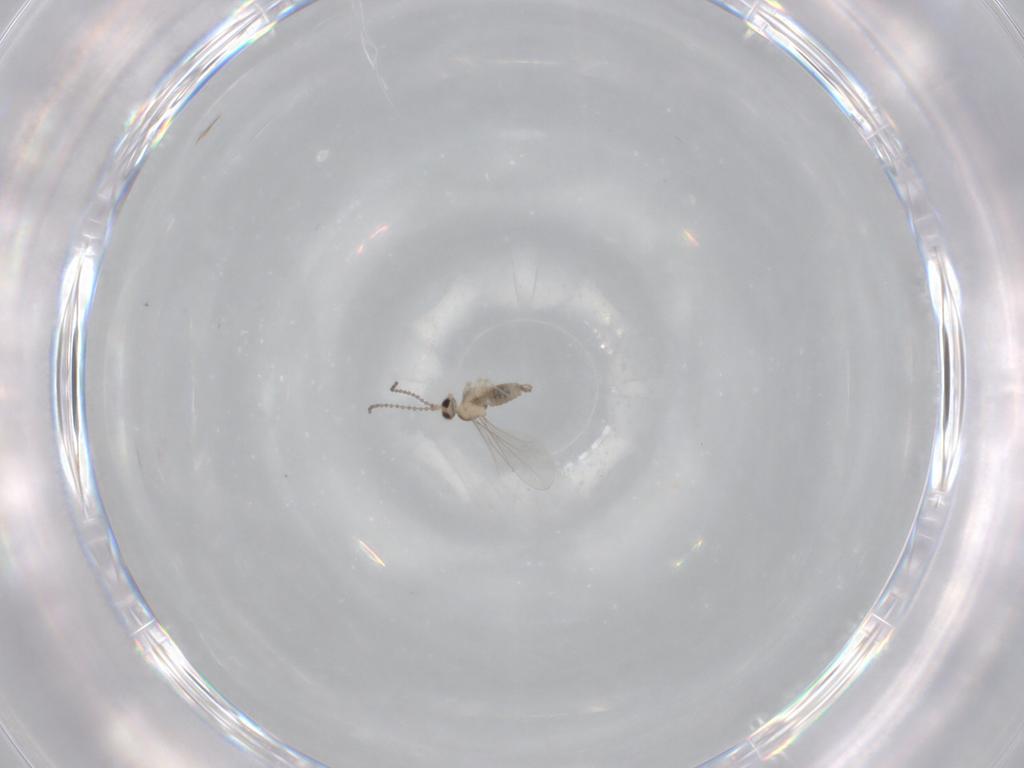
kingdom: Animalia
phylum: Arthropoda
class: Insecta
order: Diptera
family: Cecidomyiidae
